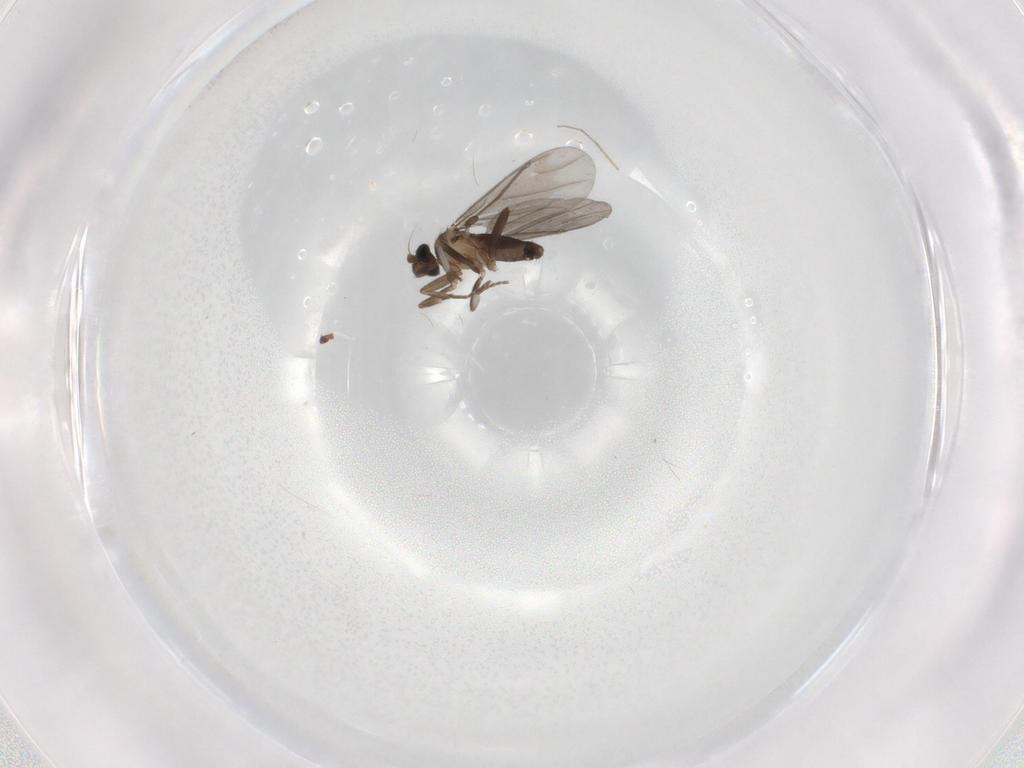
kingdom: Animalia
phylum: Arthropoda
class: Insecta
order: Diptera
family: Phoridae
